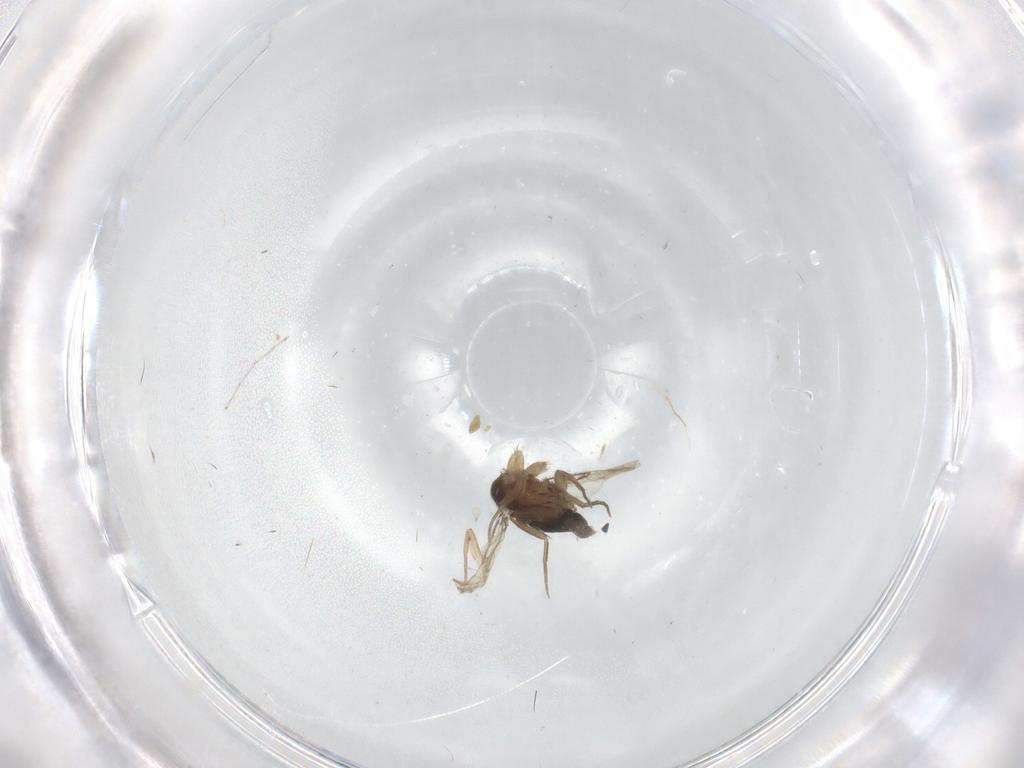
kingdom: Animalia
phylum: Arthropoda
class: Insecta
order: Diptera
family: Cecidomyiidae
